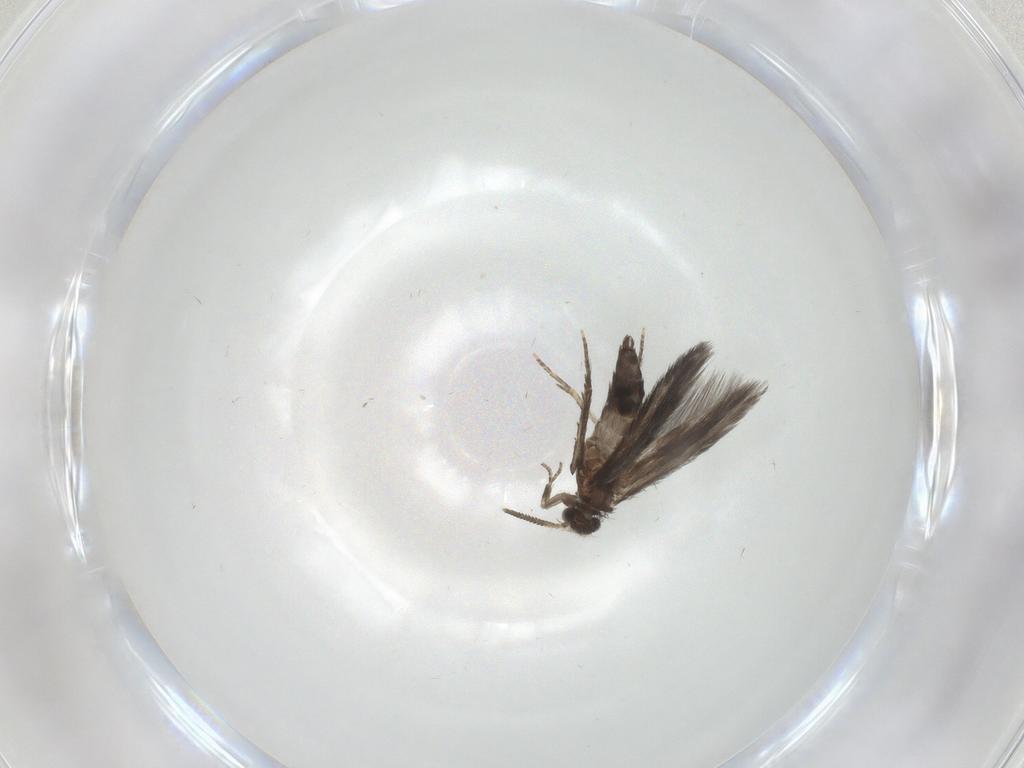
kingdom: Animalia
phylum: Arthropoda
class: Insecta
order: Trichoptera
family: Hydroptilidae
